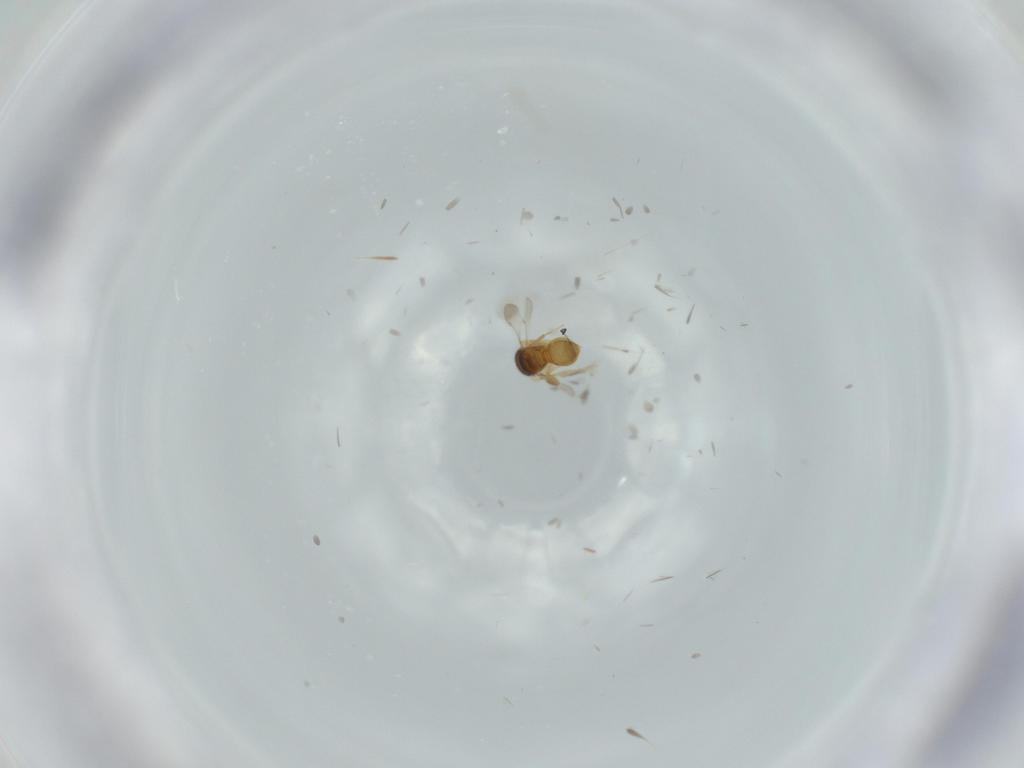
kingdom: Animalia
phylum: Arthropoda
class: Insecta
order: Hymenoptera
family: Scelionidae
